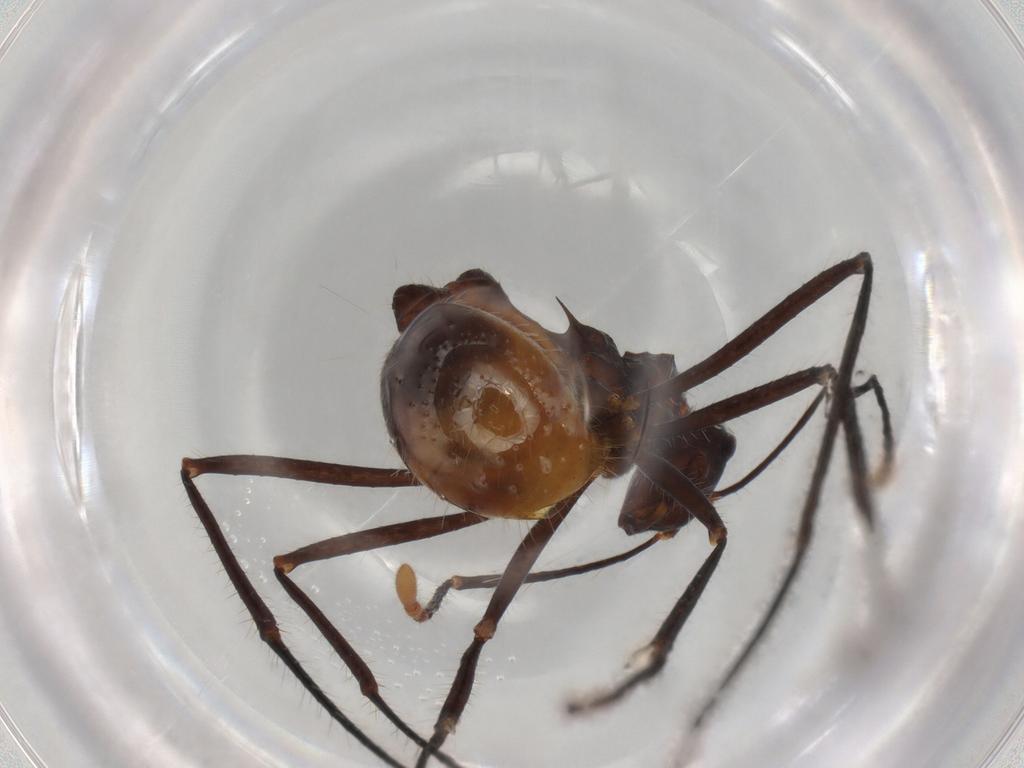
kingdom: Animalia
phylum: Arthropoda
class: Insecta
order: Hymenoptera
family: Formicidae
